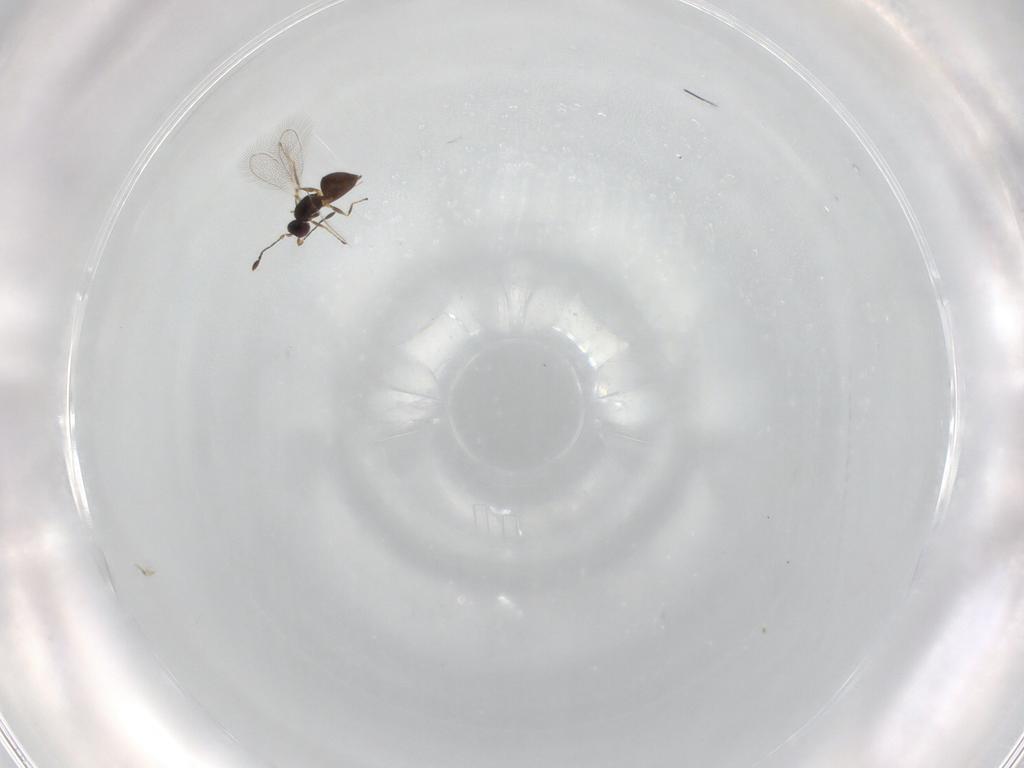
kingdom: Animalia
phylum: Arthropoda
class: Insecta
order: Hymenoptera
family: Mymaridae
